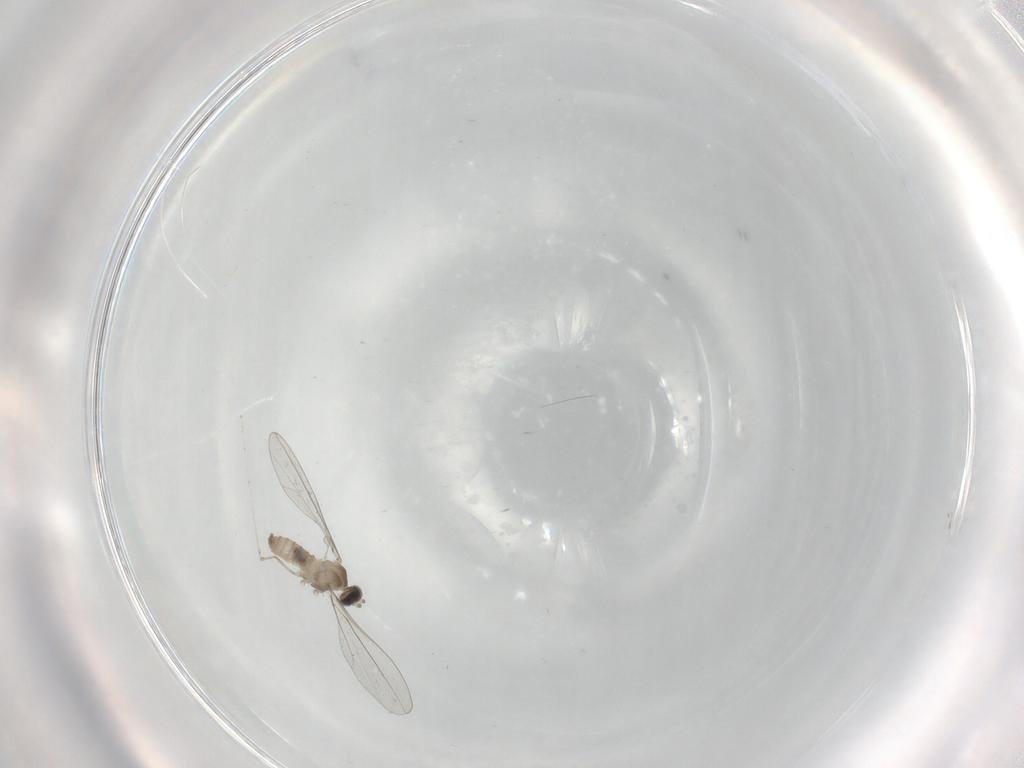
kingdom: Animalia
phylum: Arthropoda
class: Insecta
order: Diptera
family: Cecidomyiidae
